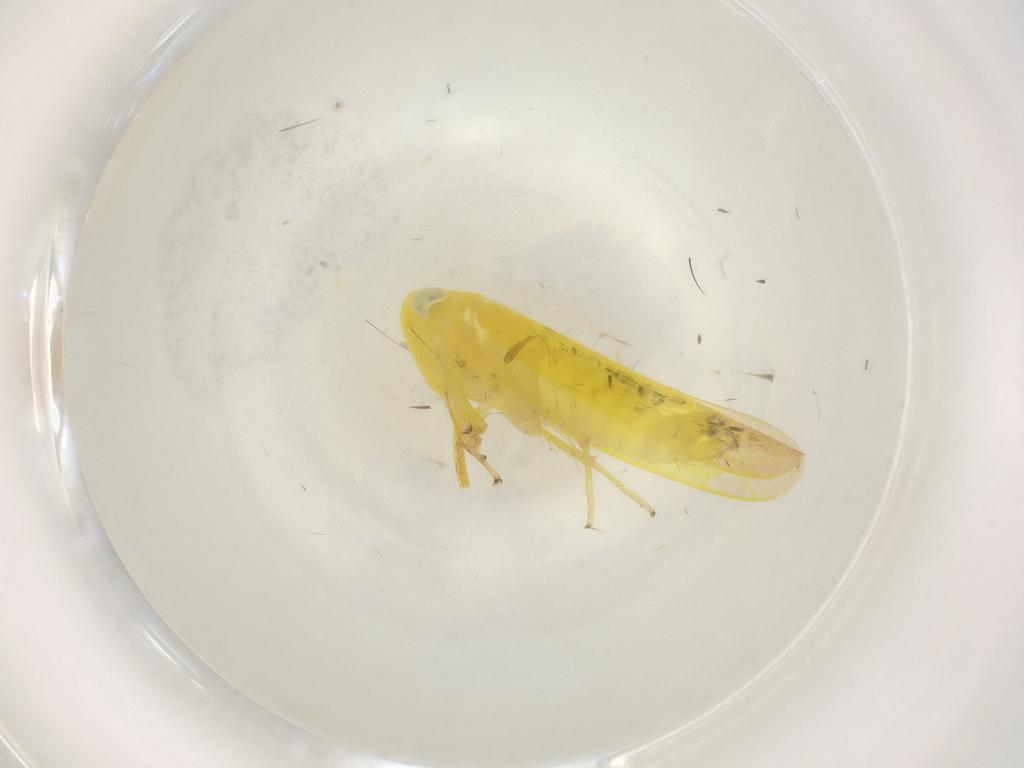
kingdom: Animalia
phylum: Arthropoda
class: Insecta
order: Hemiptera
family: Cicadellidae
